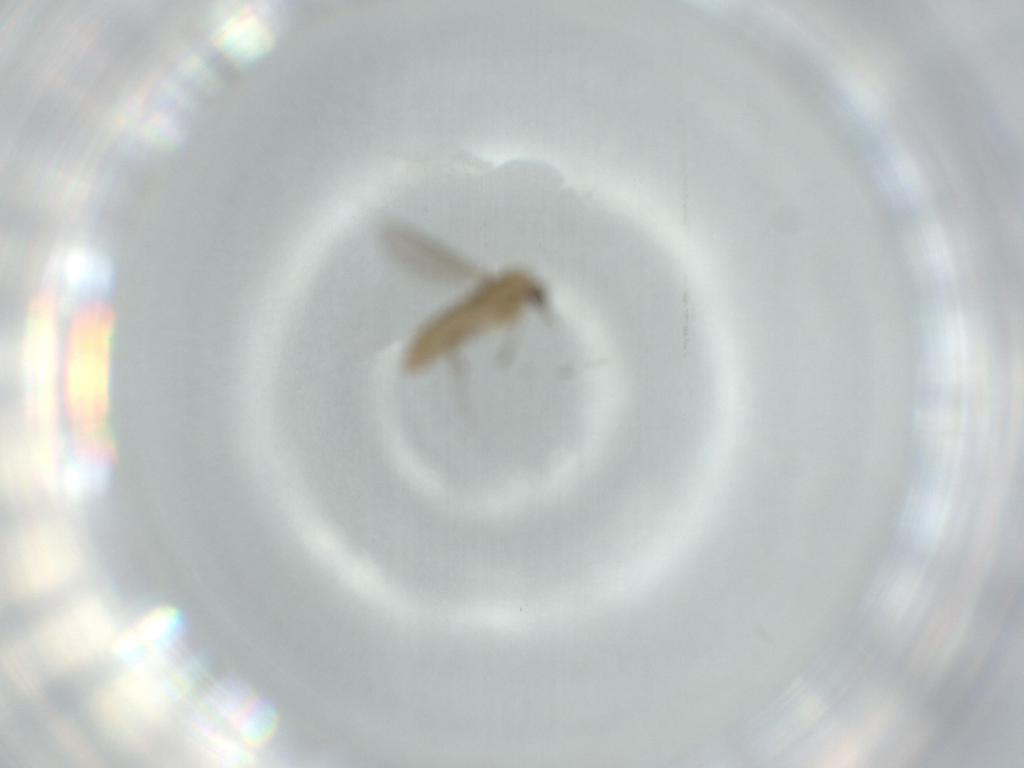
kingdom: Animalia
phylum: Arthropoda
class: Insecta
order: Diptera
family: Chironomidae
